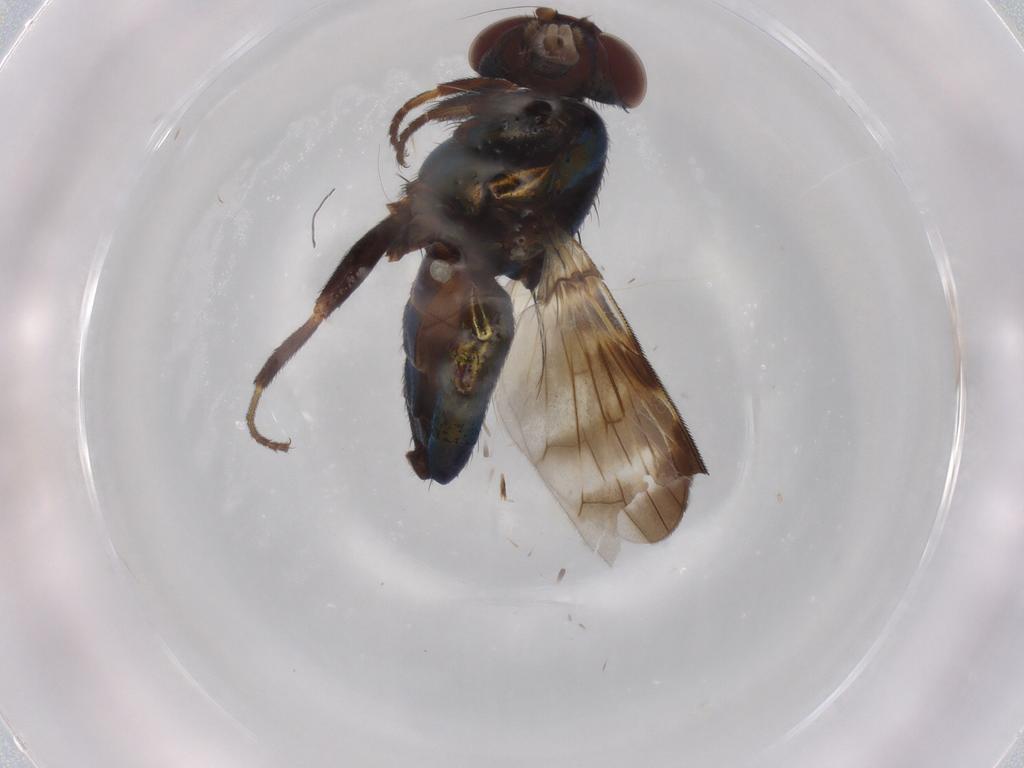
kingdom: Animalia
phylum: Arthropoda
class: Insecta
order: Diptera
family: Ulidiidae
